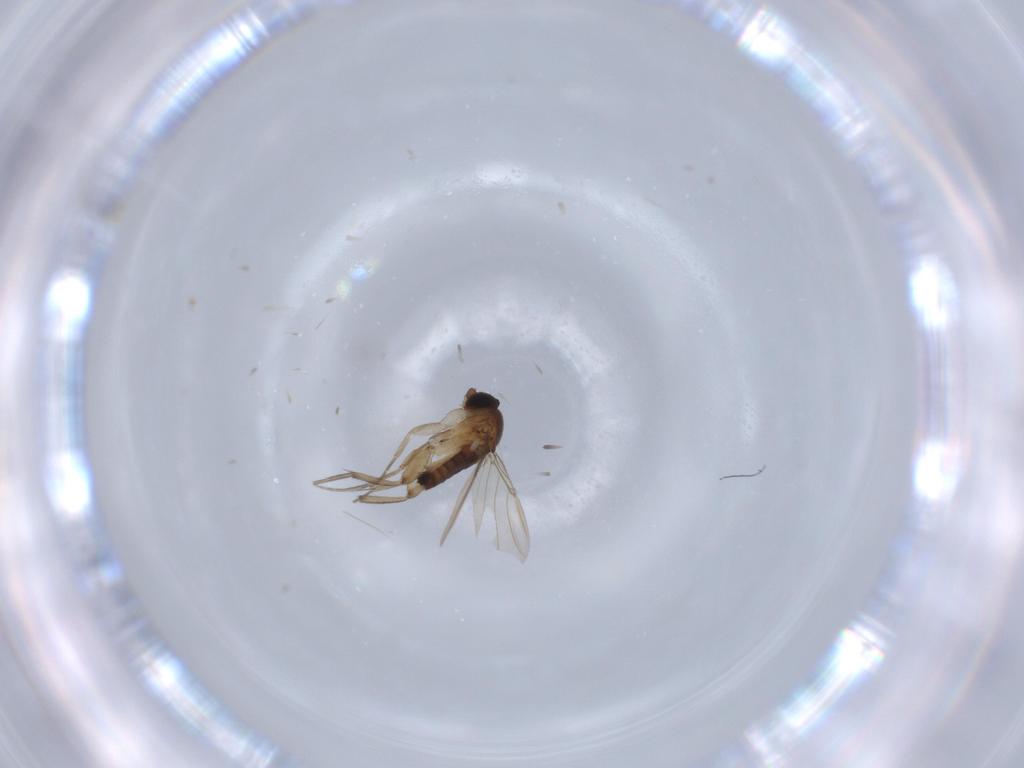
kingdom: Animalia
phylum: Arthropoda
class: Insecta
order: Diptera
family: Phoridae
